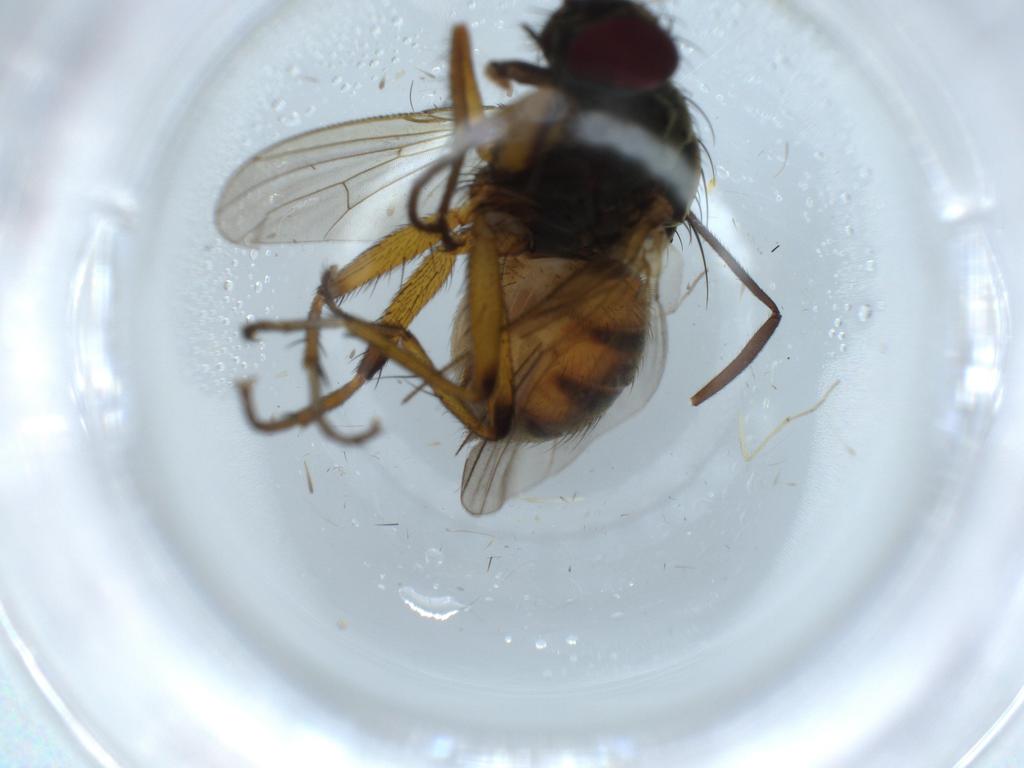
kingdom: Animalia
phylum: Arthropoda
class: Insecta
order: Diptera
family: Muscidae
